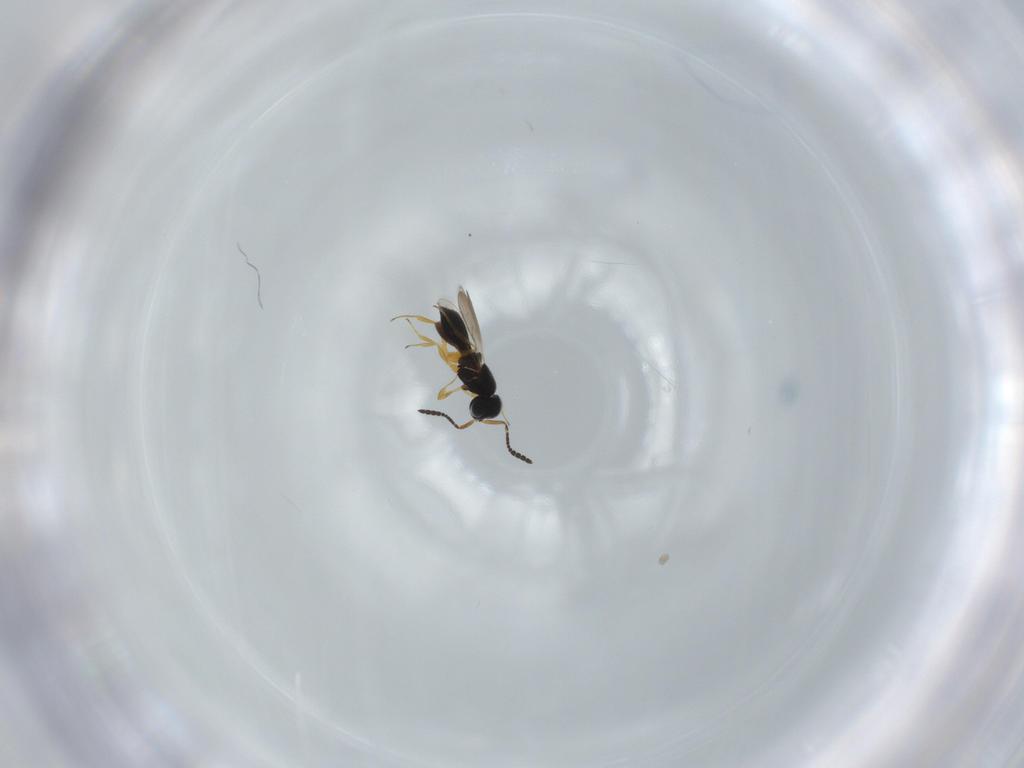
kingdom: Animalia
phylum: Arthropoda
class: Insecta
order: Hymenoptera
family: Scelionidae
